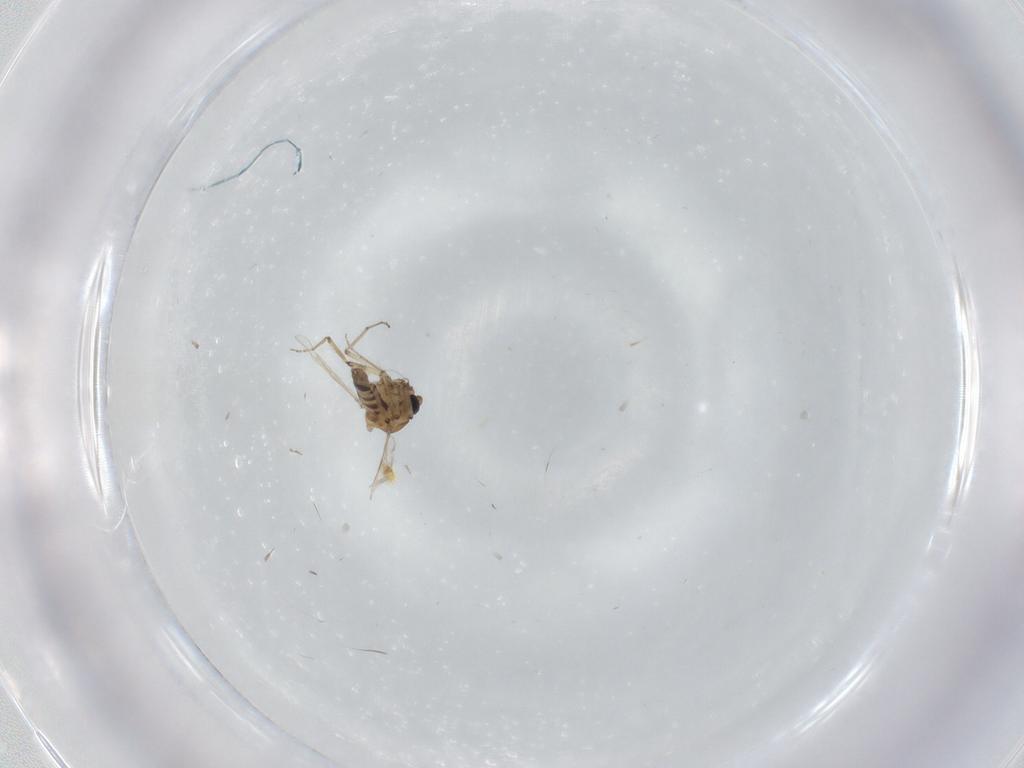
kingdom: Animalia
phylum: Arthropoda
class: Insecta
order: Diptera
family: Ceratopogonidae
